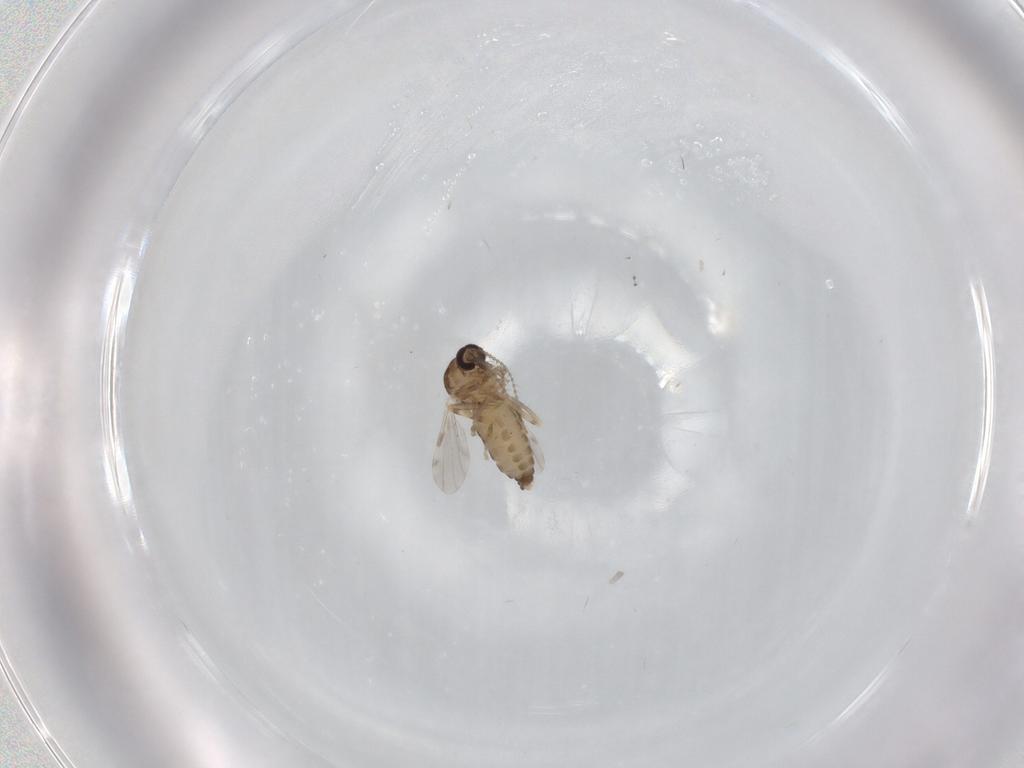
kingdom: Animalia
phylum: Arthropoda
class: Insecta
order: Diptera
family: Ceratopogonidae
